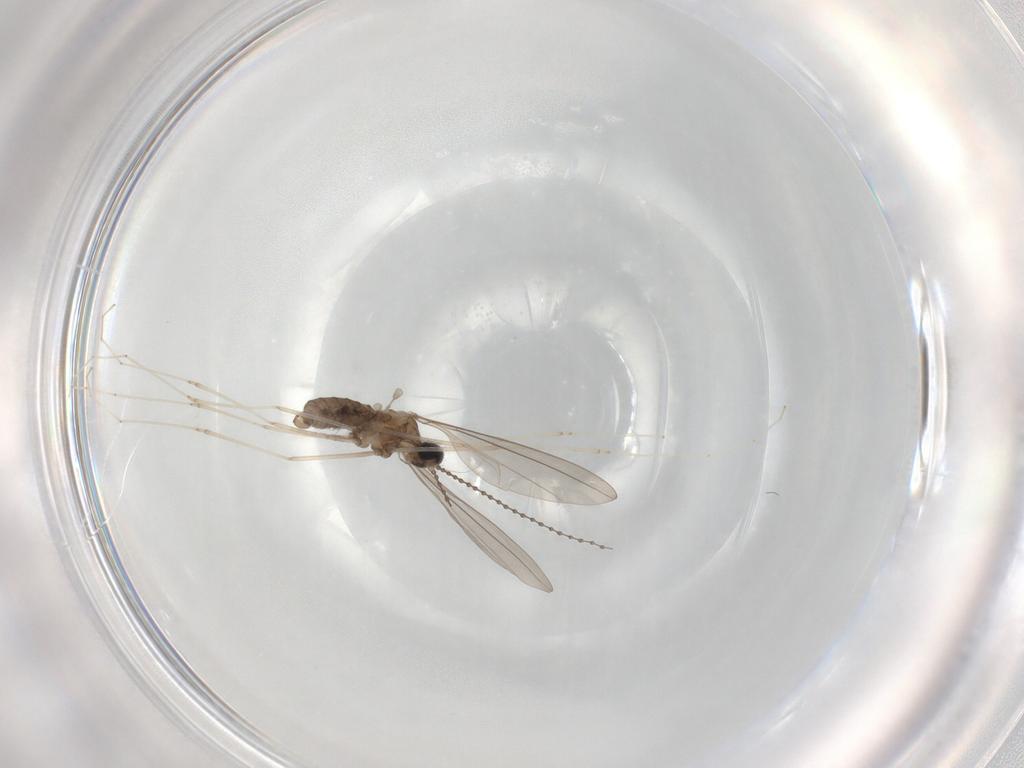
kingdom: Animalia
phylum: Arthropoda
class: Insecta
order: Diptera
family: Cecidomyiidae
